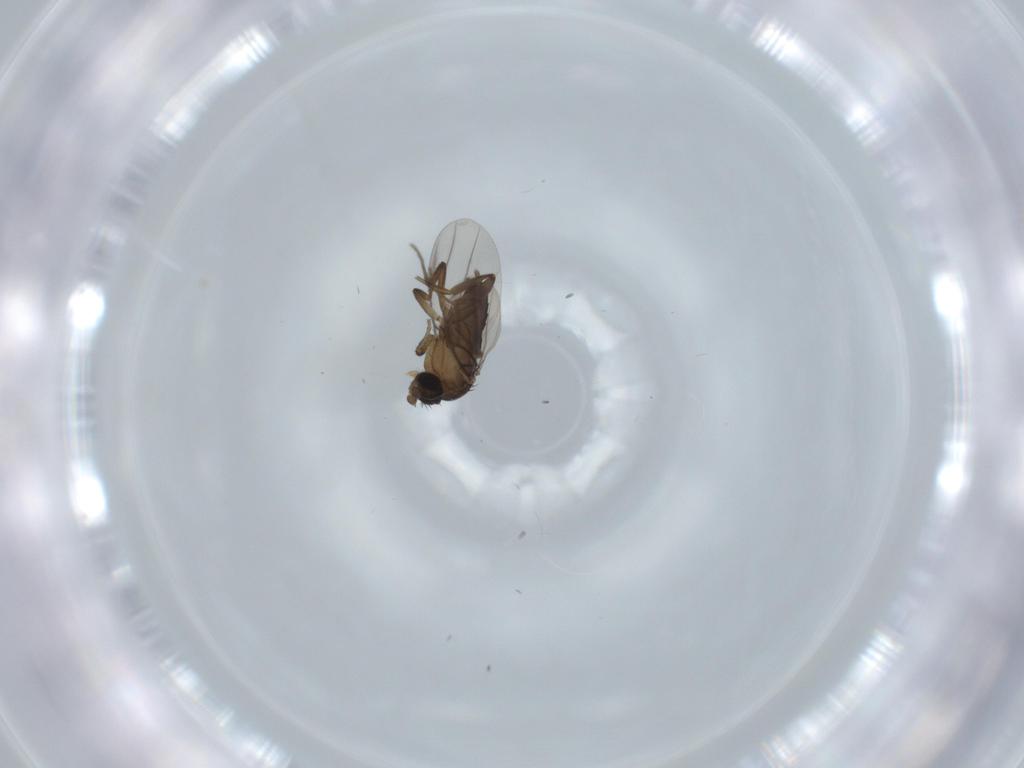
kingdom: Animalia
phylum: Arthropoda
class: Insecta
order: Diptera
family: Phoridae
